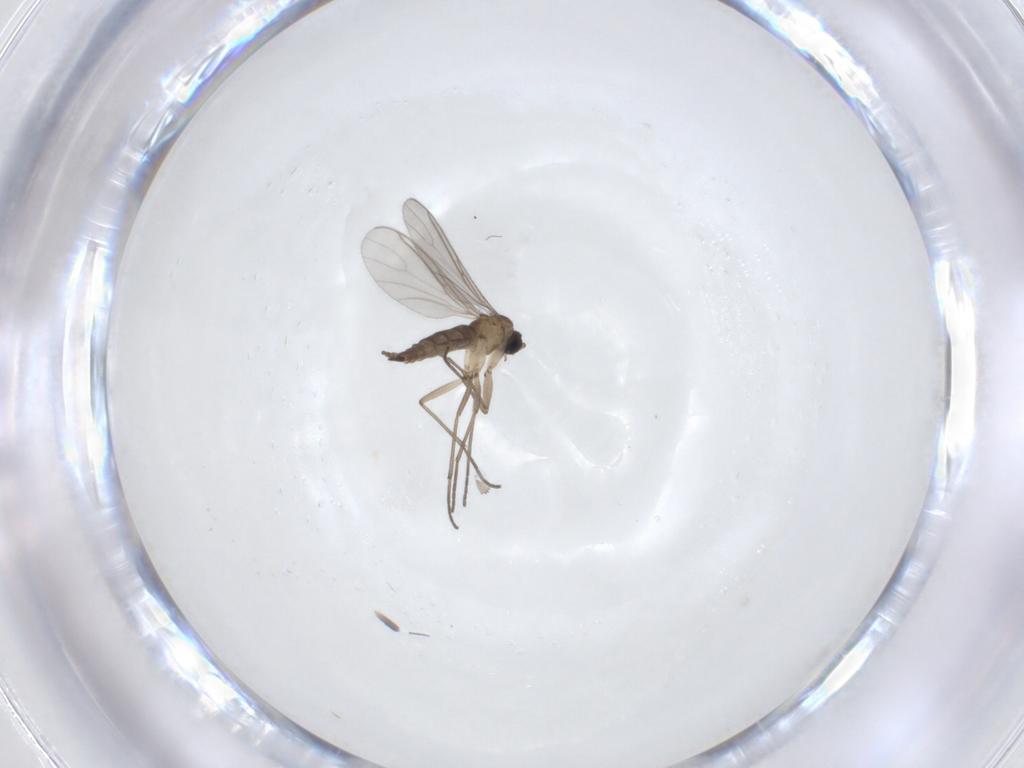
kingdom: Animalia
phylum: Arthropoda
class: Insecta
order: Diptera
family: Sciaridae
